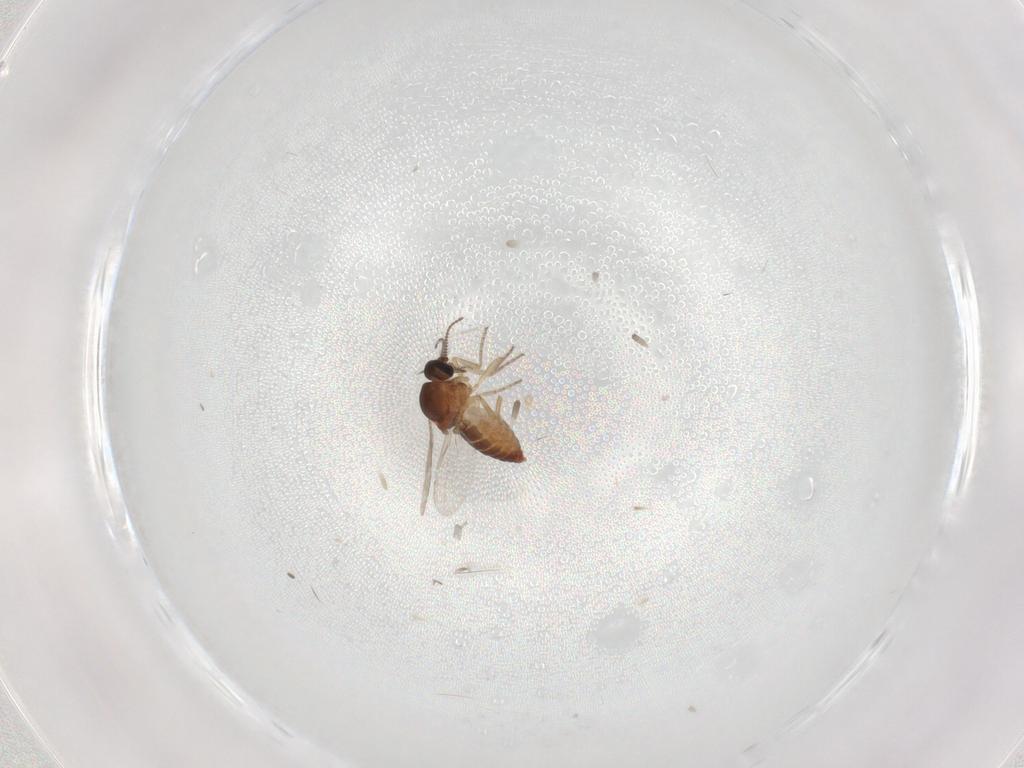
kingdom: Animalia
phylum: Arthropoda
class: Insecta
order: Diptera
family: Ceratopogonidae
